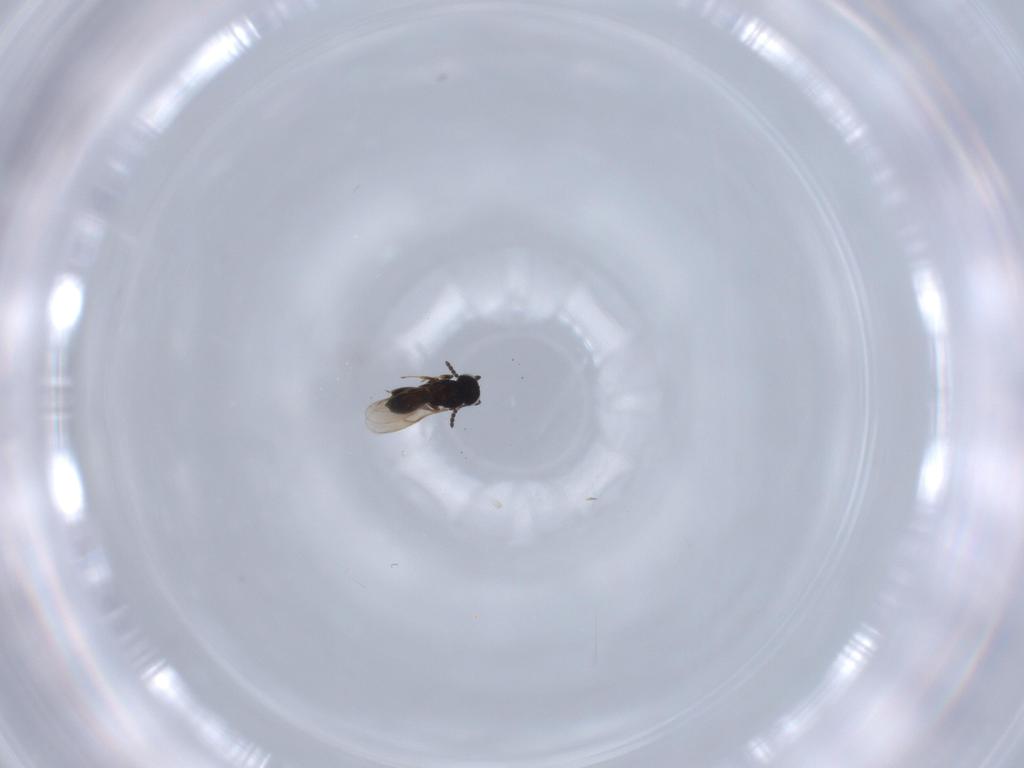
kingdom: Animalia
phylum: Arthropoda
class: Insecta
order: Hymenoptera
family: Scelionidae
